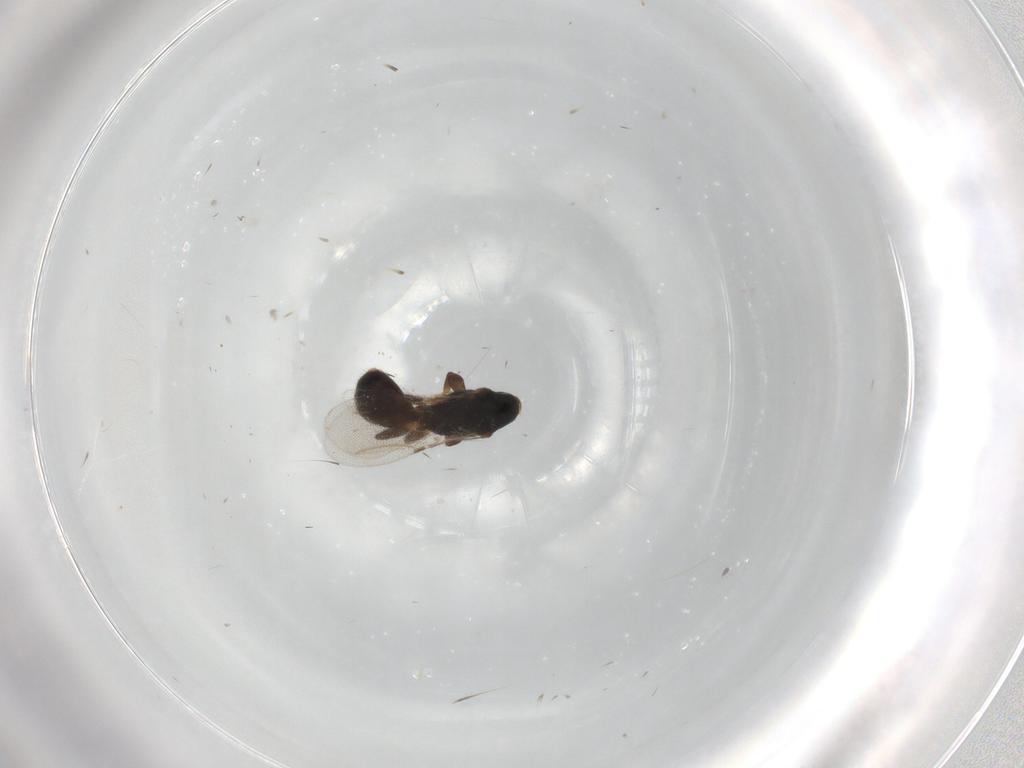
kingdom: Animalia
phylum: Arthropoda
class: Insecta
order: Hymenoptera
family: Bethylidae
